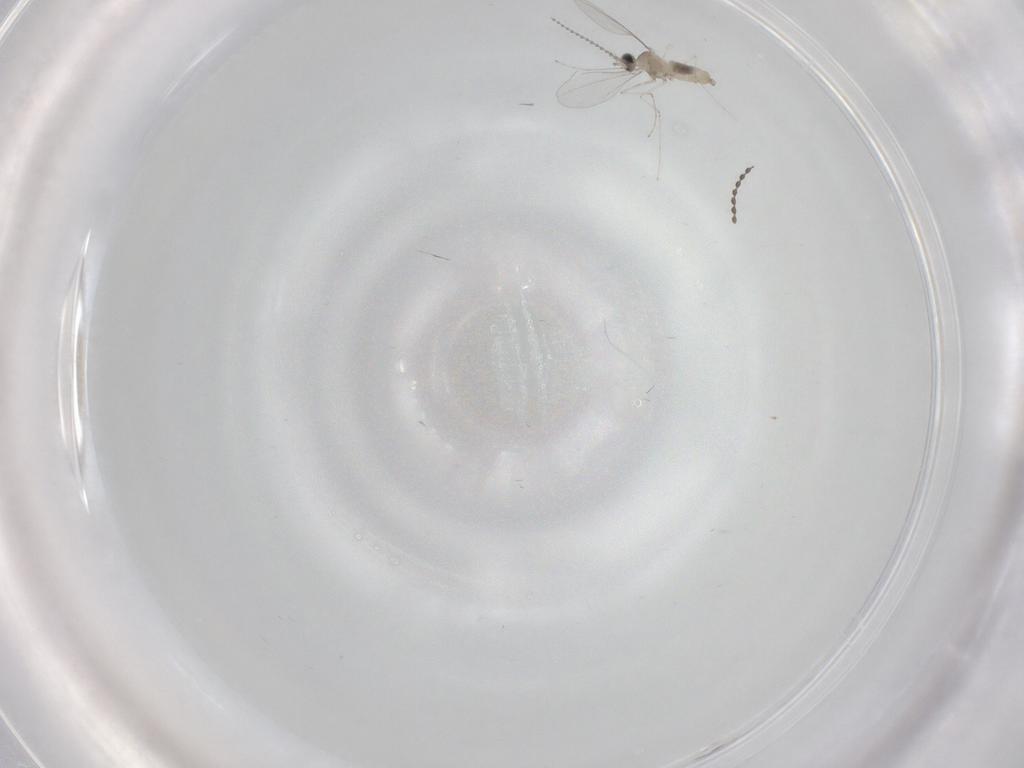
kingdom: Animalia
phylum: Arthropoda
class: Insecta
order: Diptera
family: Cecidomyiidae
